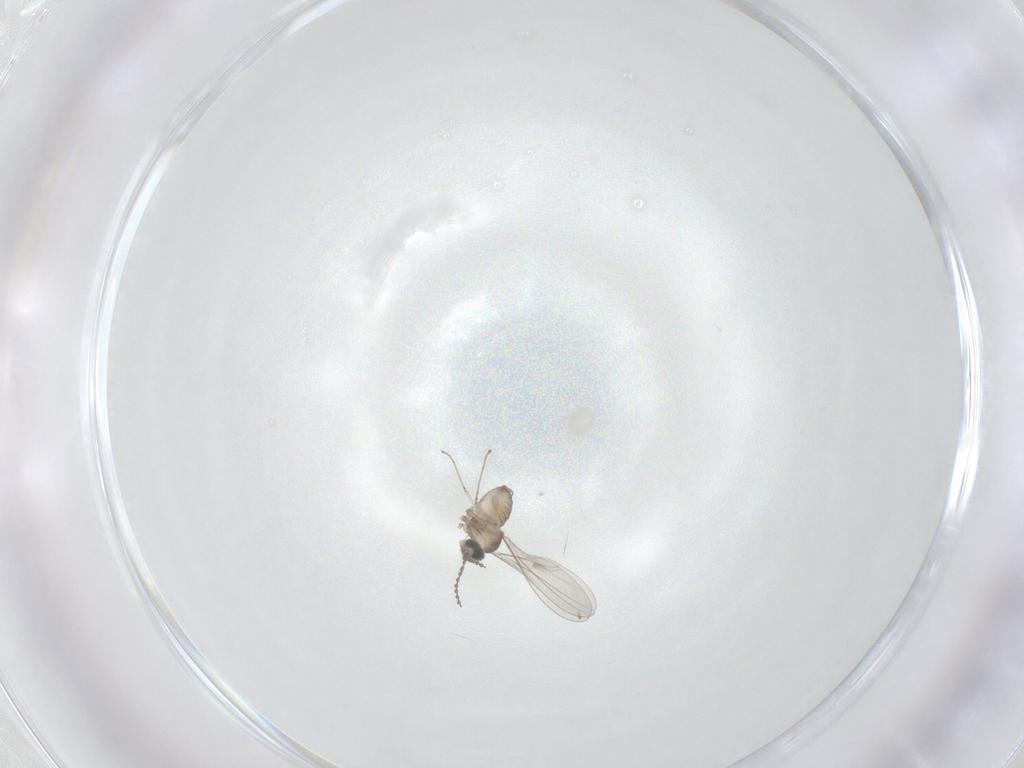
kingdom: Animalia
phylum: Arthropoda
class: Insecta
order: Diptera
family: Cecidomyiidae
